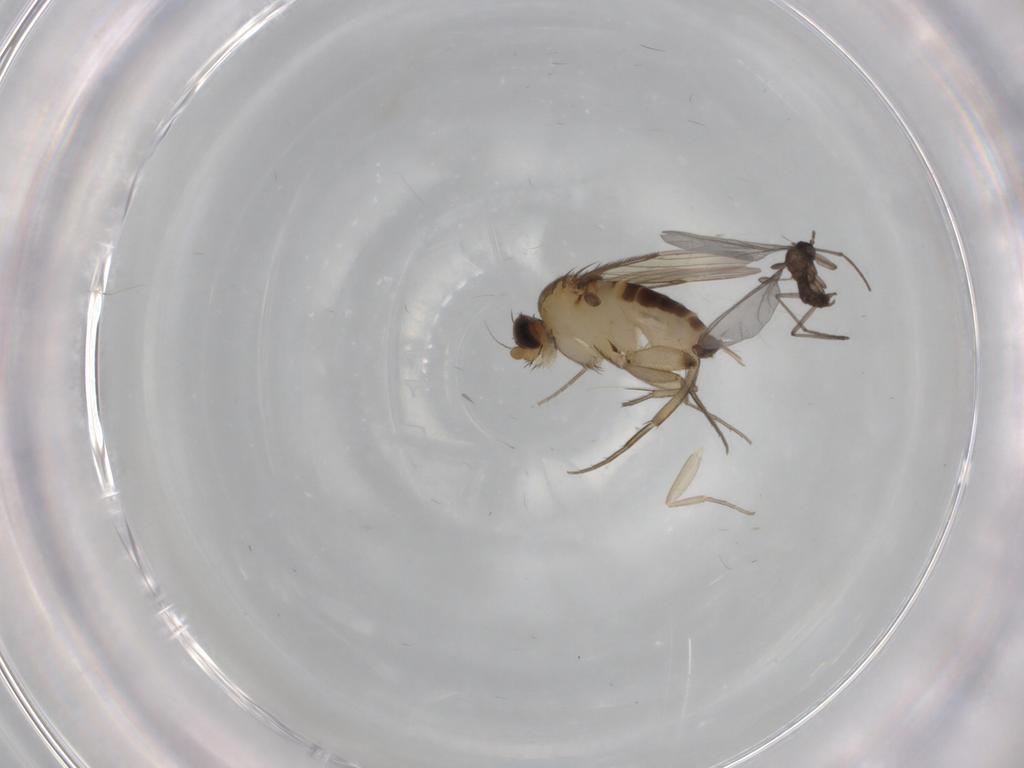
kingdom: Animalia
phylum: Arthropoda
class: Insecta
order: Diptera
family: Sciaridae
